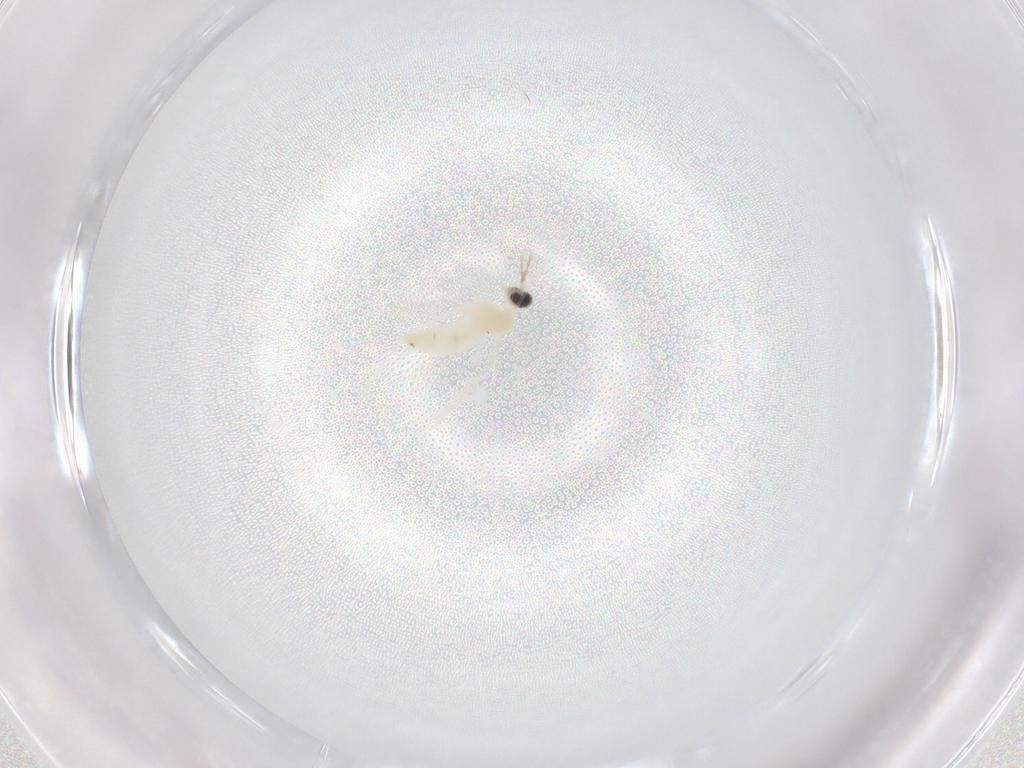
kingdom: Animalia
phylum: Arthropoda
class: Insecta
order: Diptera
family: Cecidomyiidae
